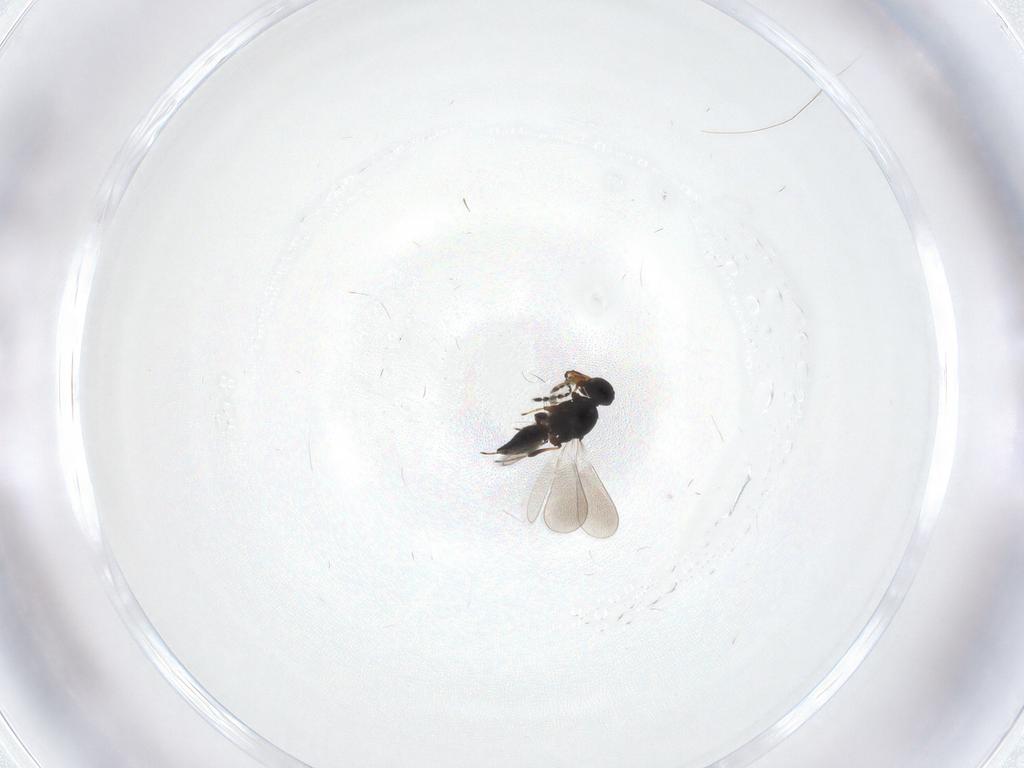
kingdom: Animalia
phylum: Arthropoda
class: Insecta
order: Hymenoptera
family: Platygastridae
